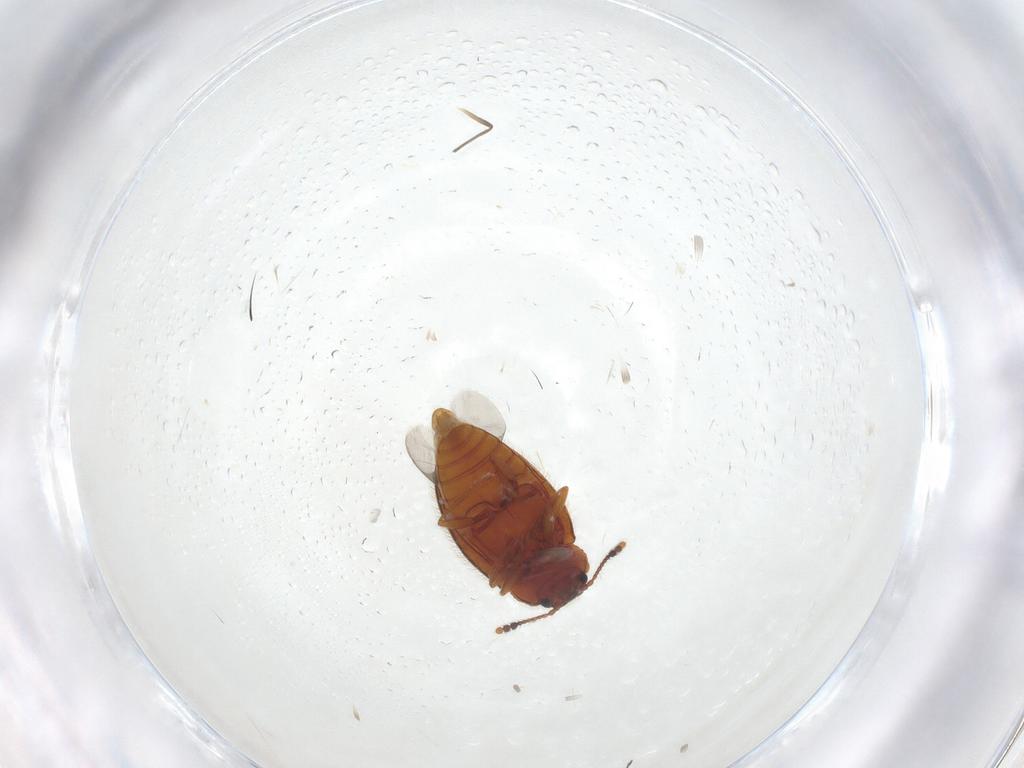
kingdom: Animalia
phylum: Arthropoda
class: Insecta
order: Coleoptera
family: Erotylidae
